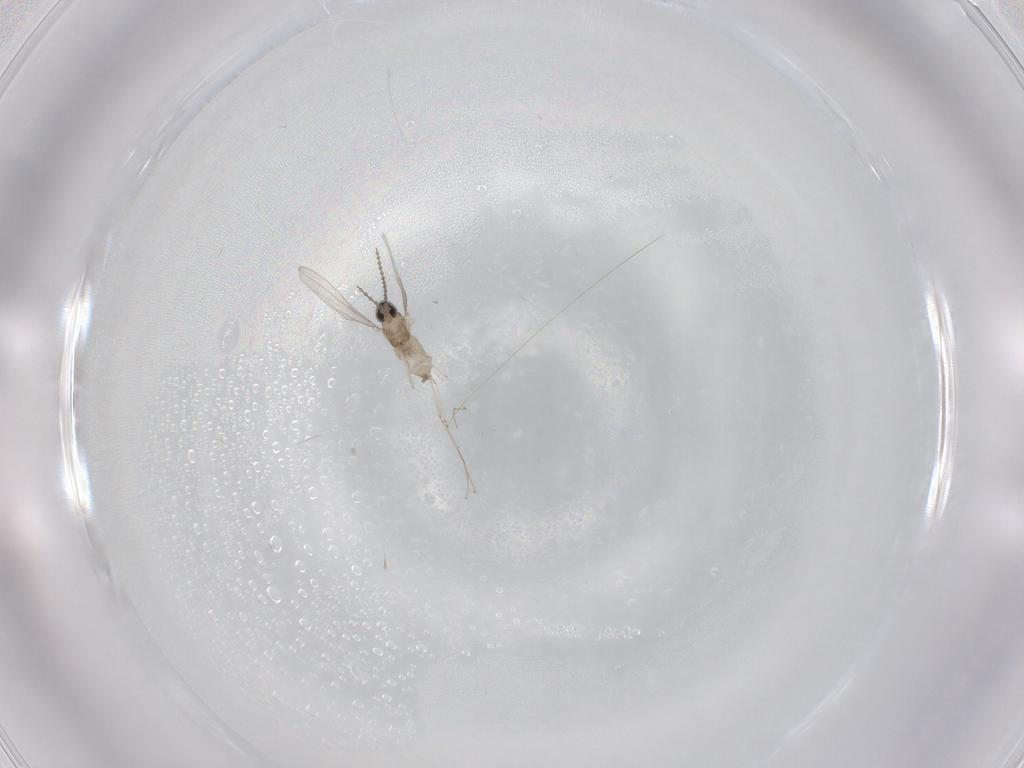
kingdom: Animalia
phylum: Arthropoda
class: Insecta
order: Diptera
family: Cecidomyiidae
